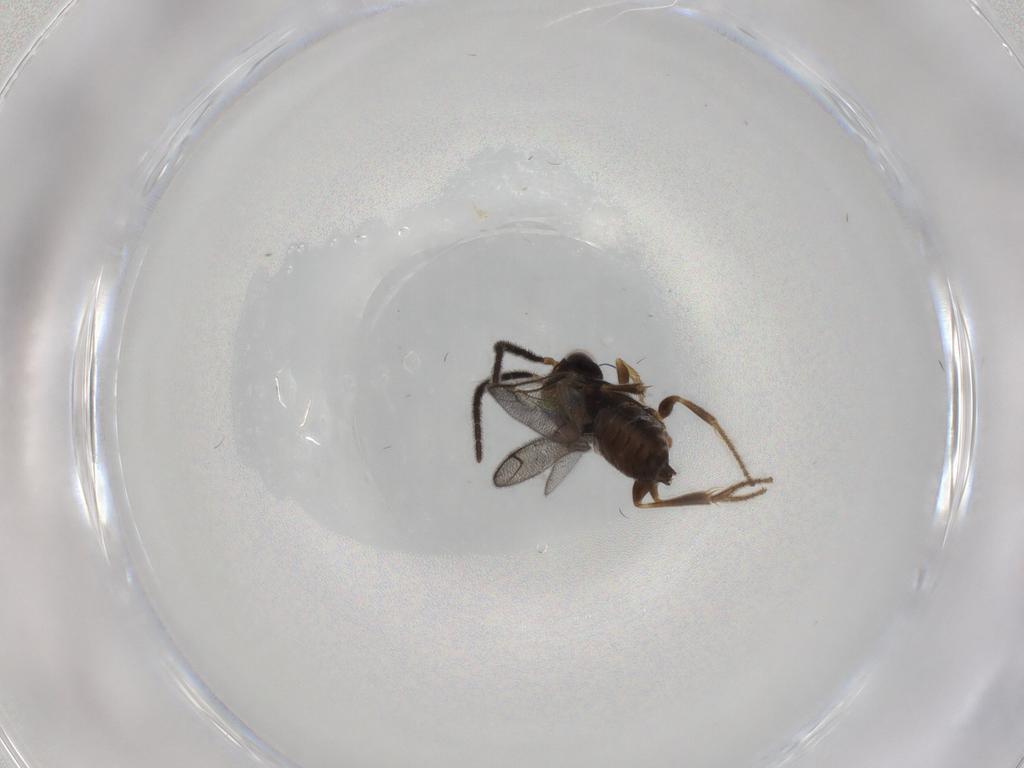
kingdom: Animalia
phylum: Arthropoda
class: Insecta
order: Hymenoptera
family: Dryinidae
